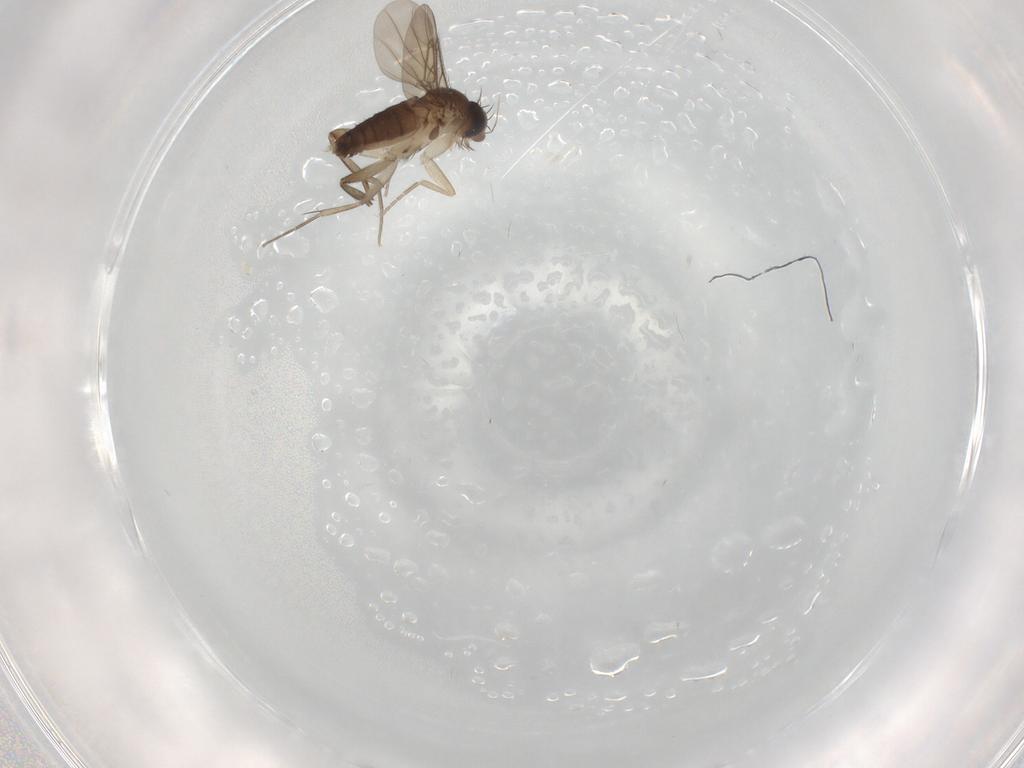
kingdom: Animalia
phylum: Arthropoda
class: Insecta
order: Diptera
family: Phoridae
